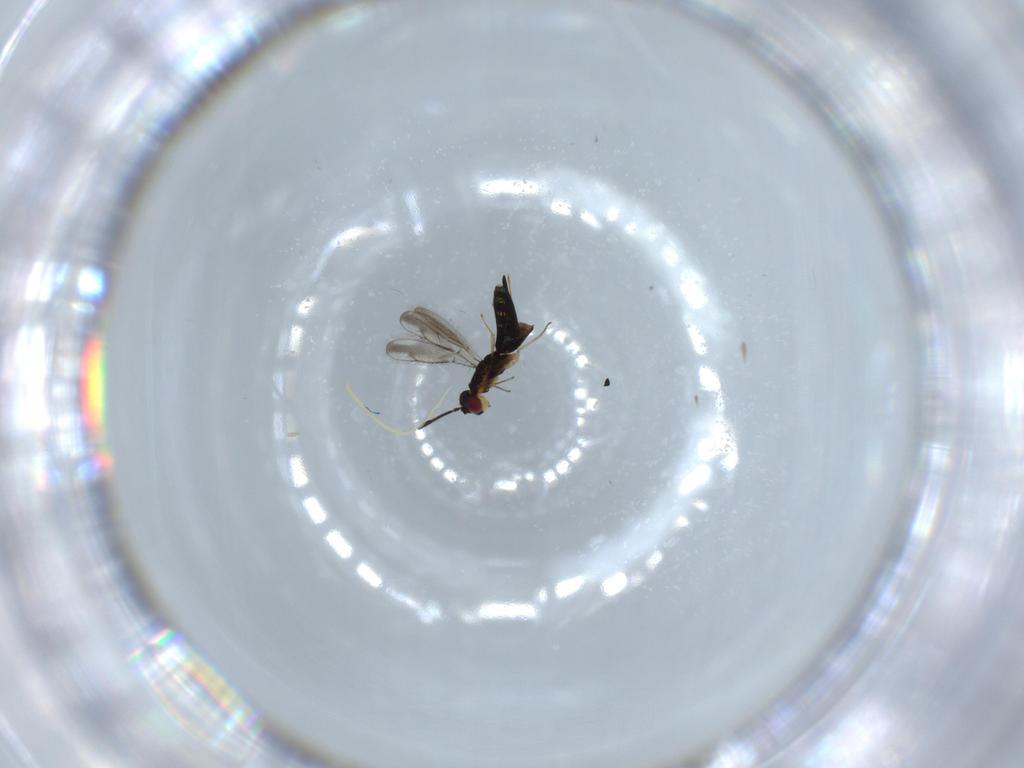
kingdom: Animalia
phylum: Arthropoda
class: Insecta
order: Hymenoptera
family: Pteromalidae
